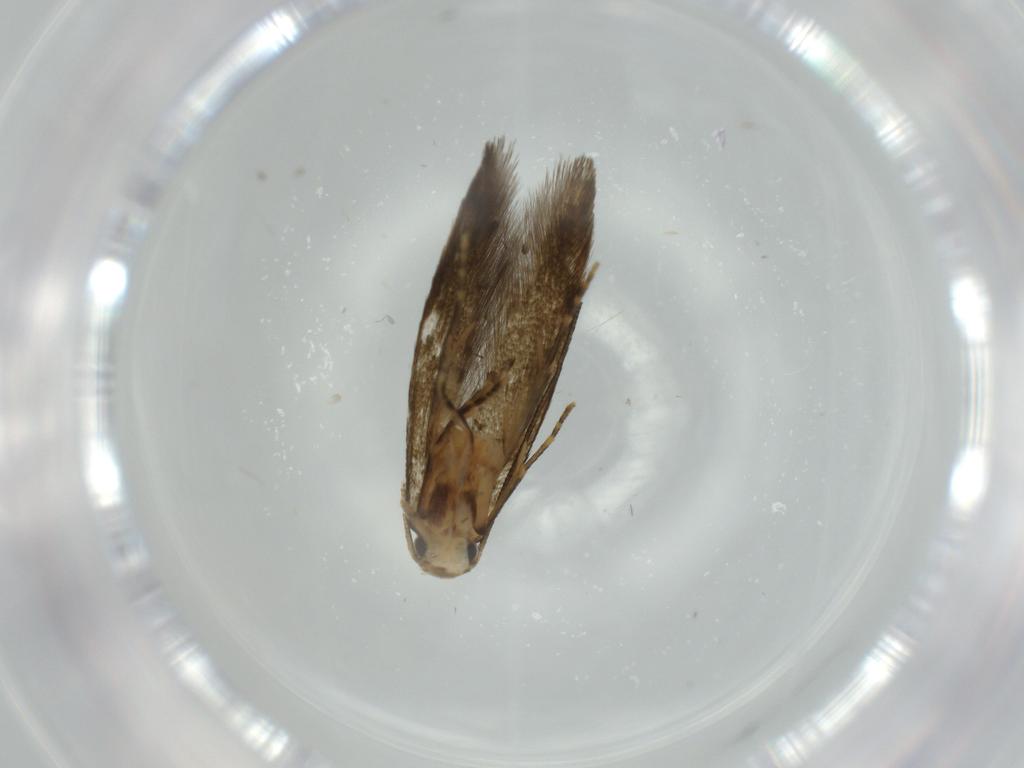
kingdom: Animalia
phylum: Arthropoda
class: Insecta
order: Lepidoptera
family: Tineidae
